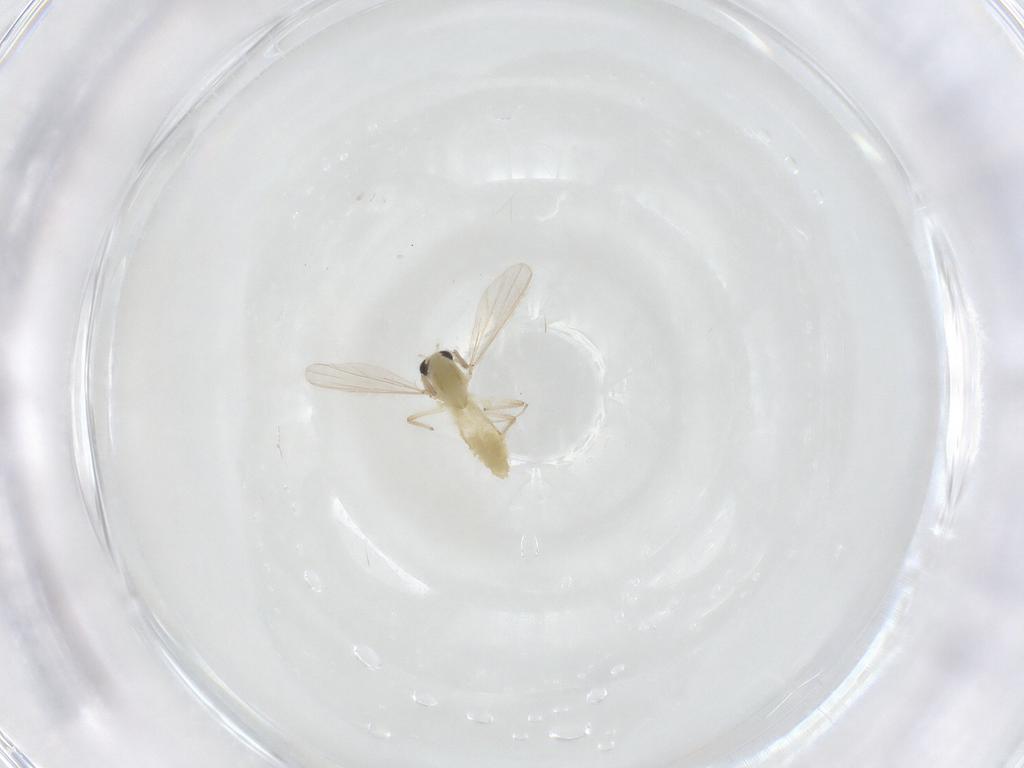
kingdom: Animalia
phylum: Arthropoda
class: Insecta
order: Diptera
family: Chironomidae
